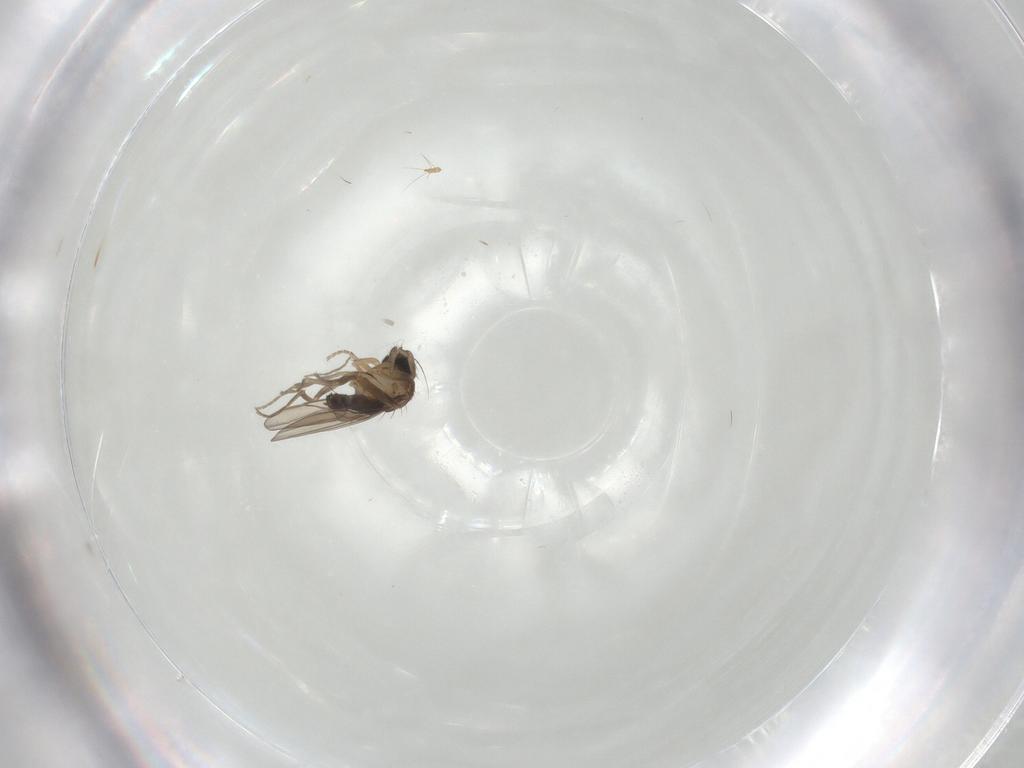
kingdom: Animalia
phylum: Arthropoda
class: Insecta
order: Diptera
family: Phoridae
